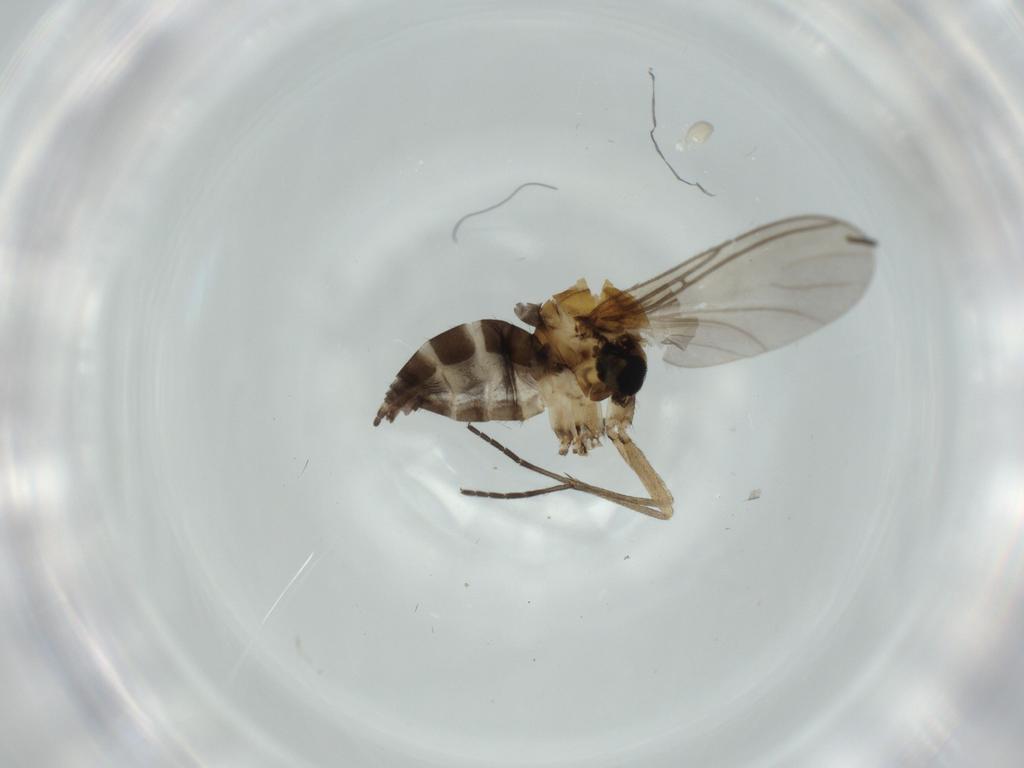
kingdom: Animalia
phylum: Arthropoda
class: Insecta
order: Diptera
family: Sciaridae
